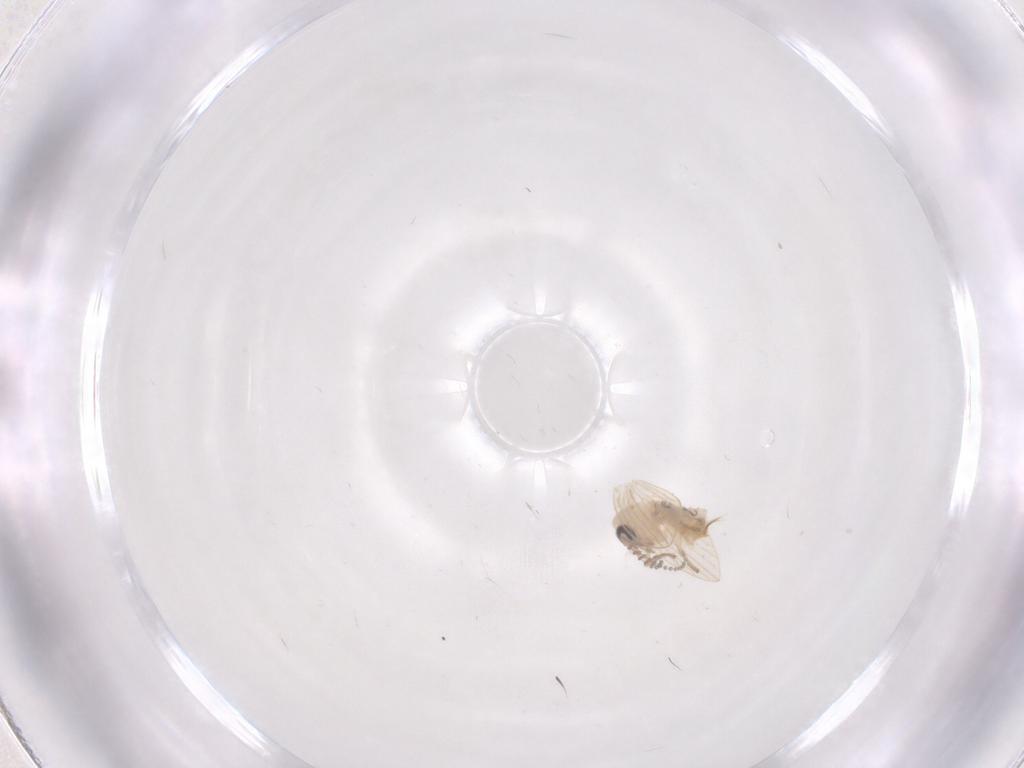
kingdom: Animalia
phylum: Arthropoda
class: Insecta
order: Diptera
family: Psychodidae
